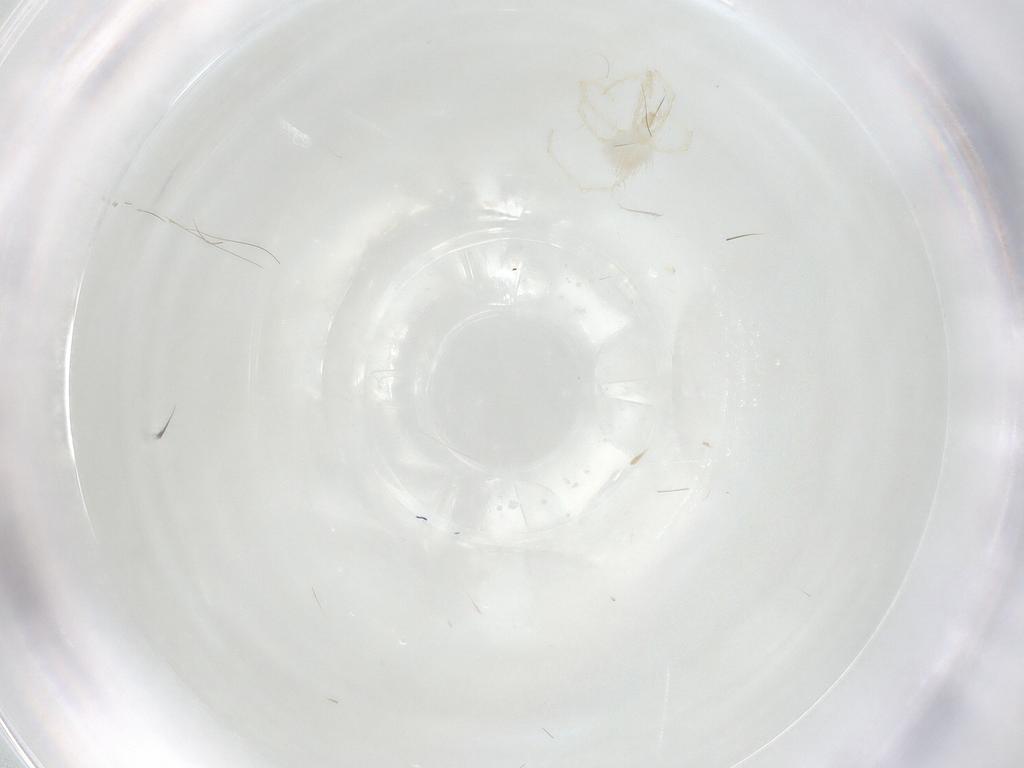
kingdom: Animalia
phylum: Arthropoda
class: Arachnida
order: Trombidiformes
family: Erythraeidae
